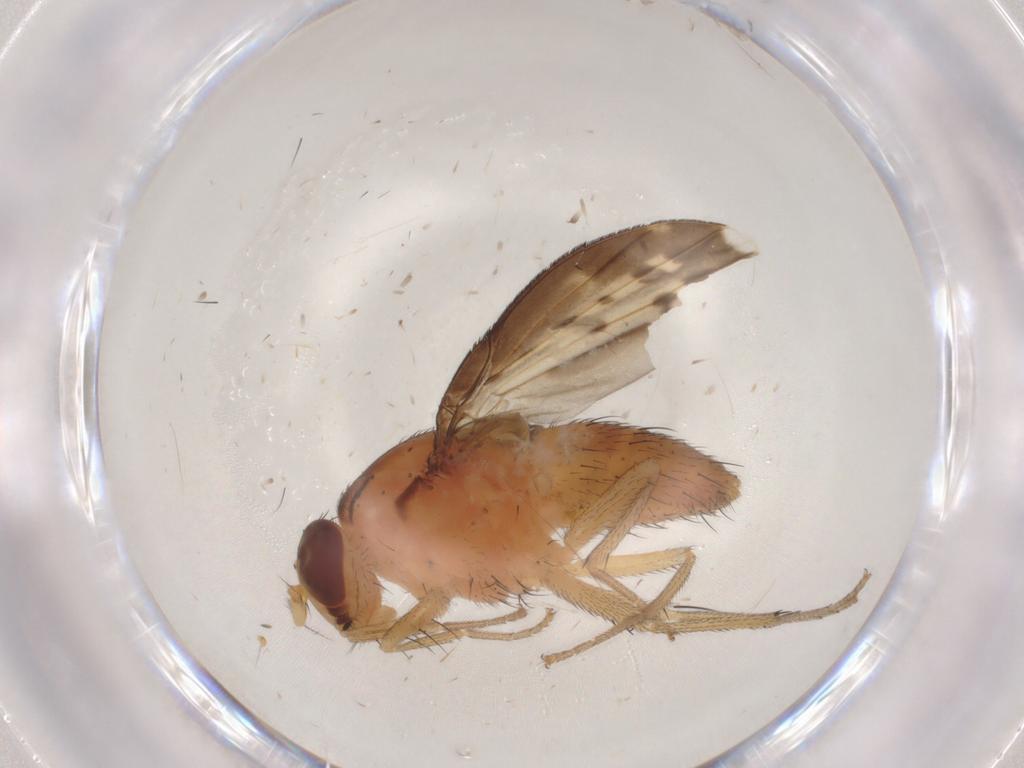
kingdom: Animalia
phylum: Arthropoda
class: Insecta
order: Diptera
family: Lauxaniidae
